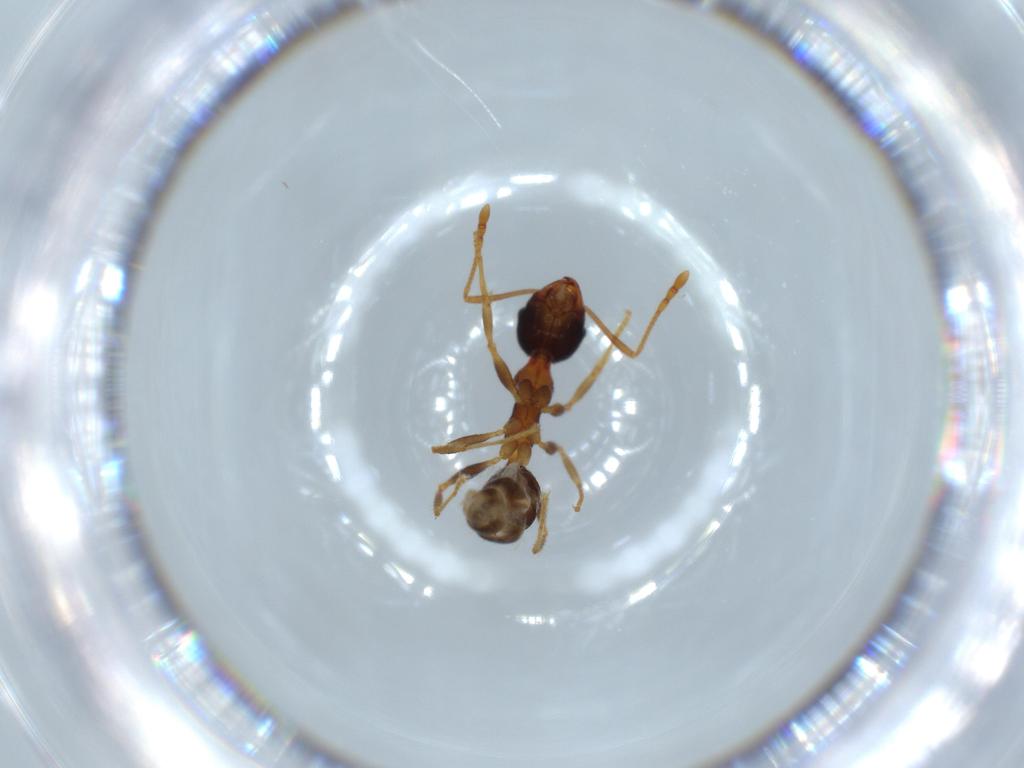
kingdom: Animalia
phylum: Arthropoda
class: Insecta
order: Hymenoptera
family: Formicidae
